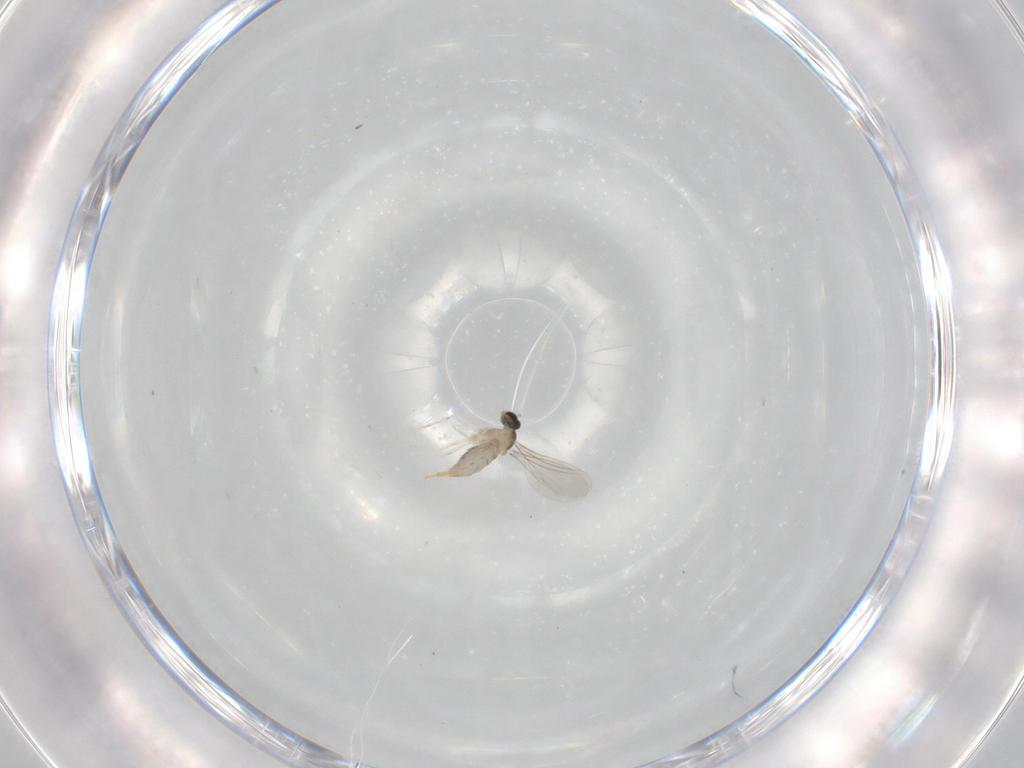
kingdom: Animalia
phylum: Arthropoda
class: Insecta
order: Diptera
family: Cecidomyiidae
